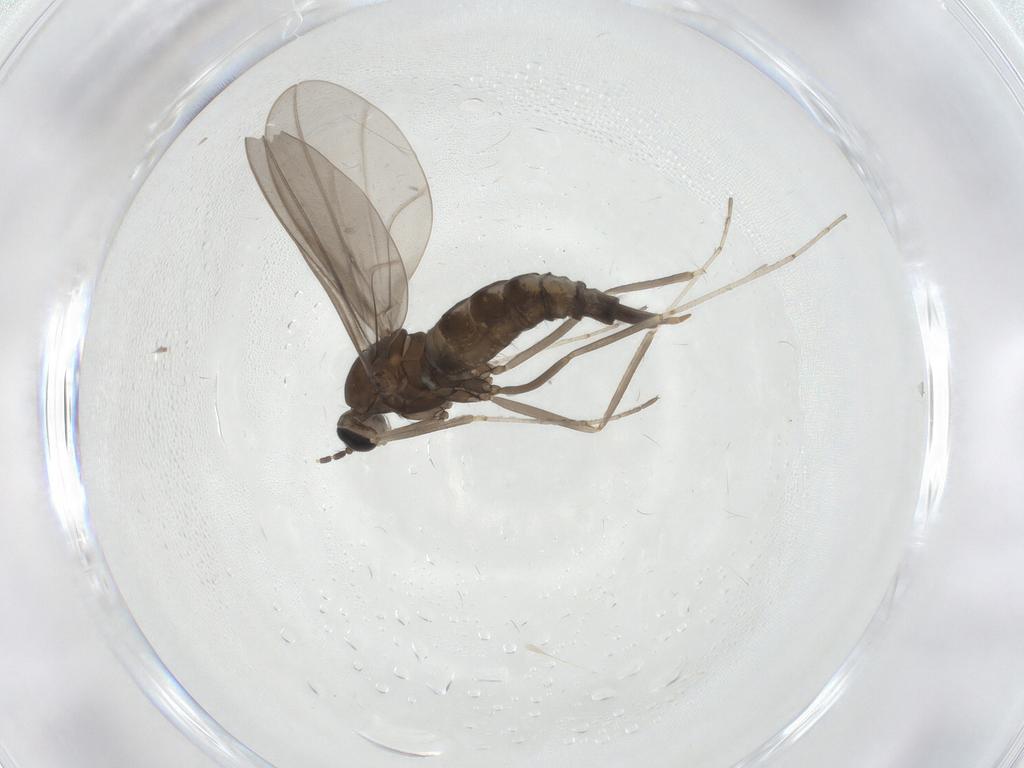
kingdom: Animalia
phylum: Arthropoda
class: Insecta
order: Diptera
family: Cecidomyiidae
